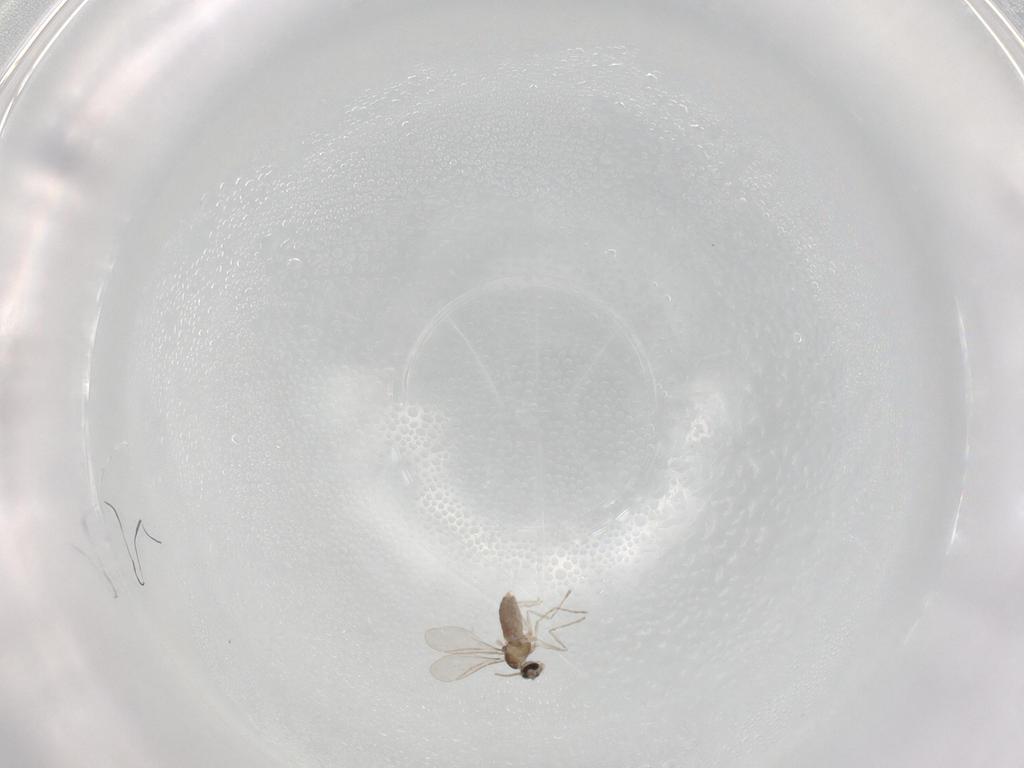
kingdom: Animalia
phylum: Arthropoda
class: Insecta
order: Diptera
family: Cecidomyiidae
